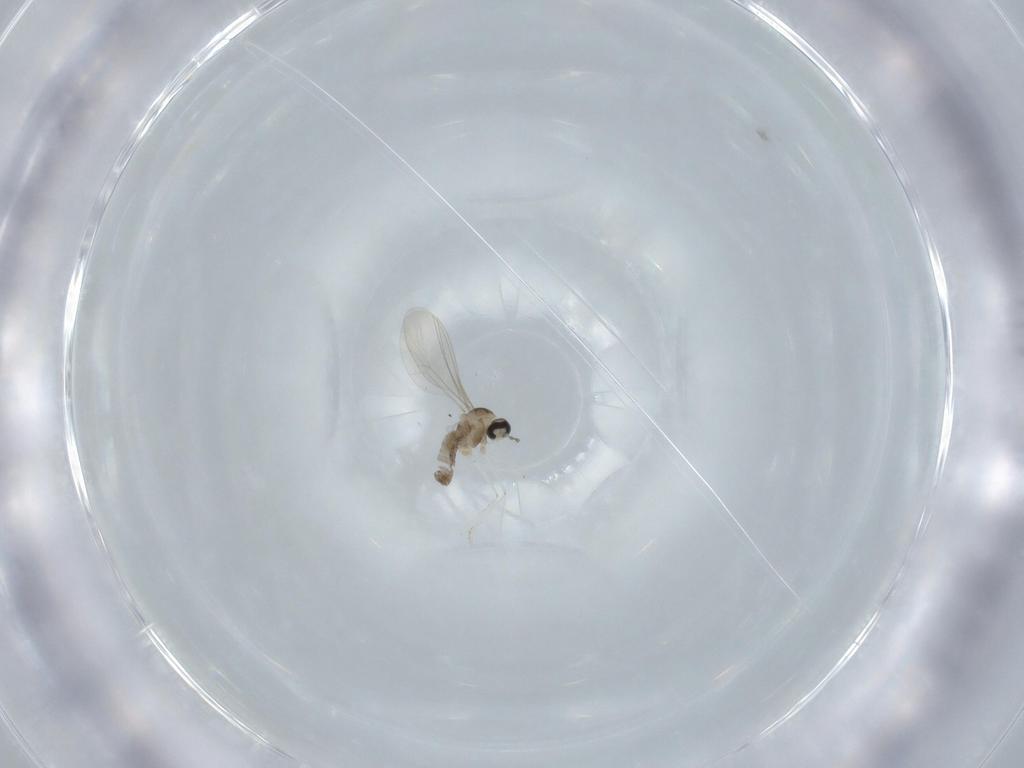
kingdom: Animalia
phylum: Arthropoda
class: Insecta
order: Diptera
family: Cecidomyiidae
